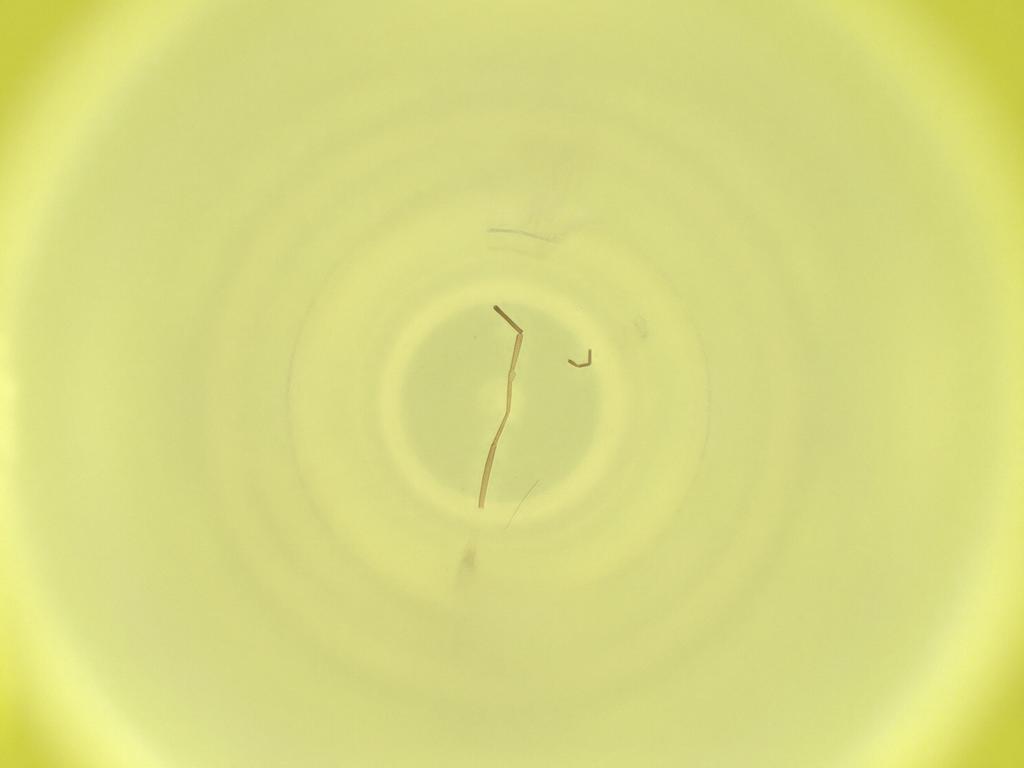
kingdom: Animalia
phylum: Arthropoda
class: Insecta
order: Diptera
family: Cecidomyiidae
